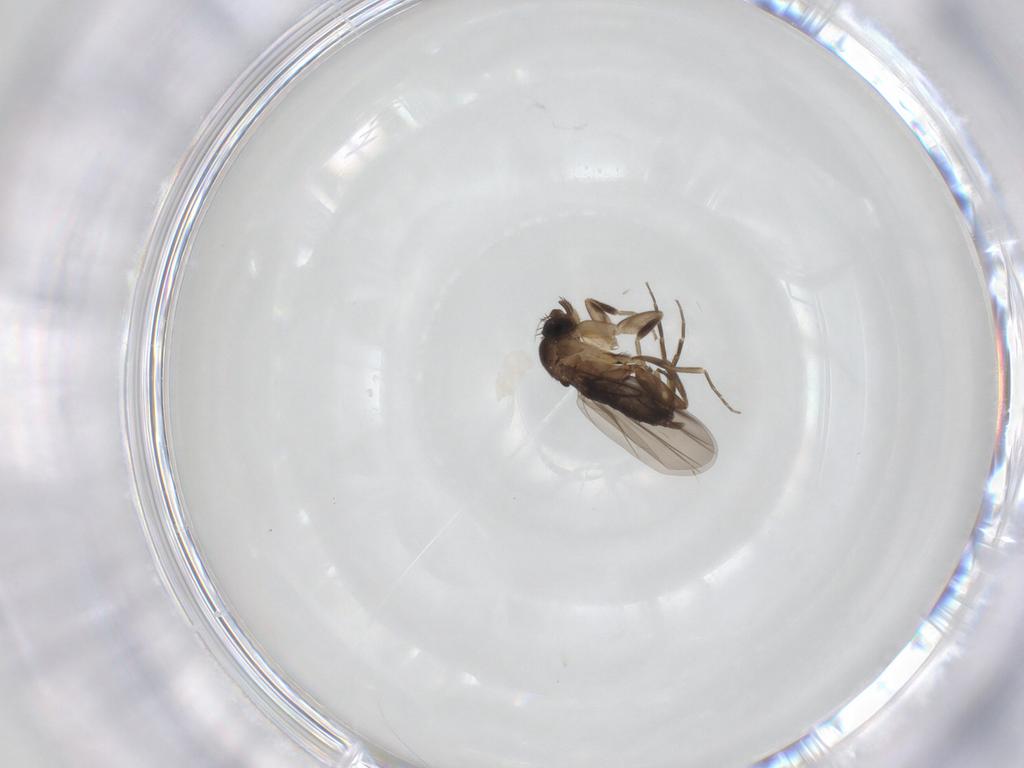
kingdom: Animalia
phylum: Arthropoda
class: Insecta
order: Diptera
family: Phoridae
